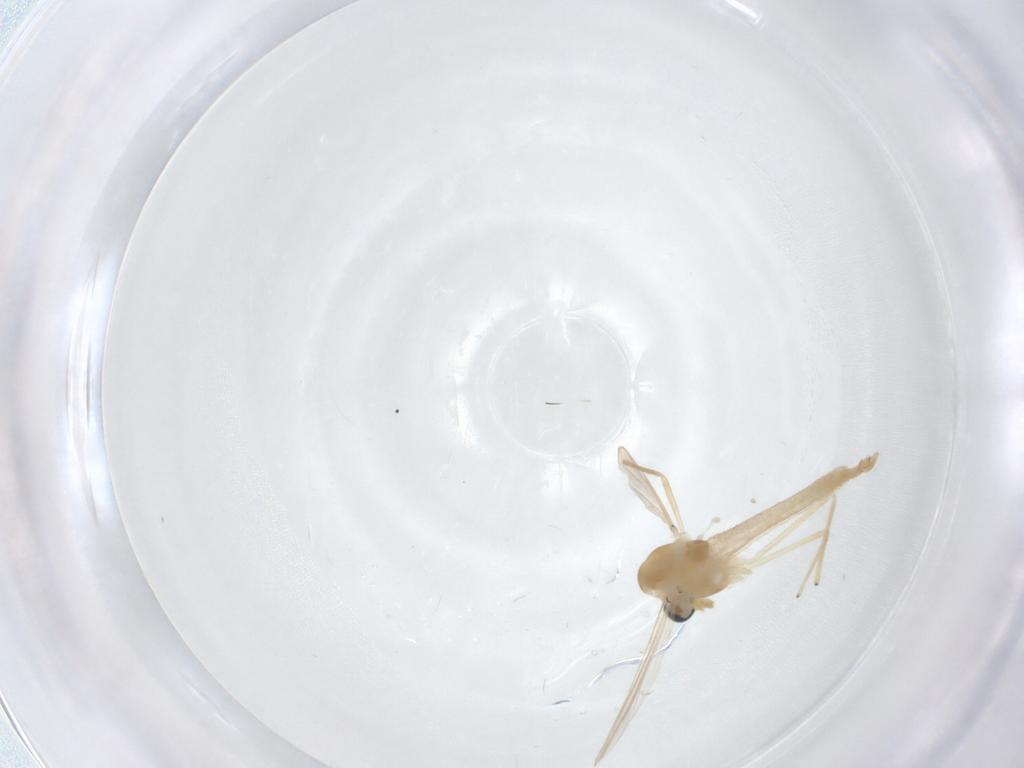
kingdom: Animalia
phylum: Arthropoda
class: Insecta
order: Diptera
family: Chironomidae
